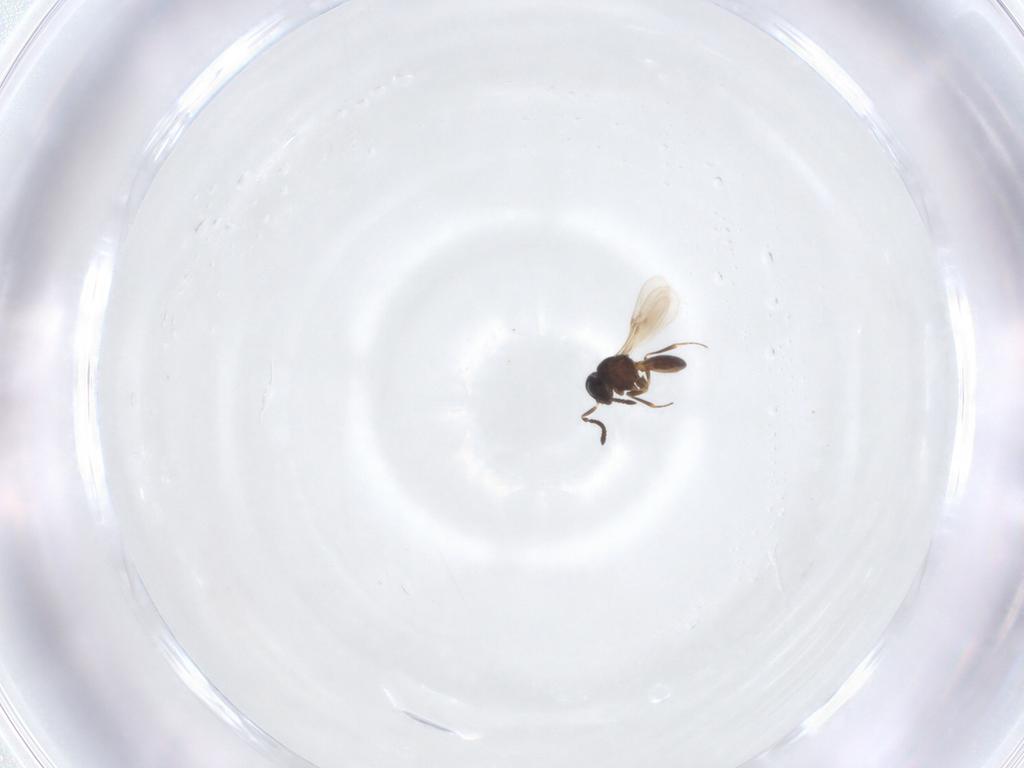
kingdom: Animalia
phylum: Arthropoda
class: Insecta
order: Hymenoptera
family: Scelionidae
